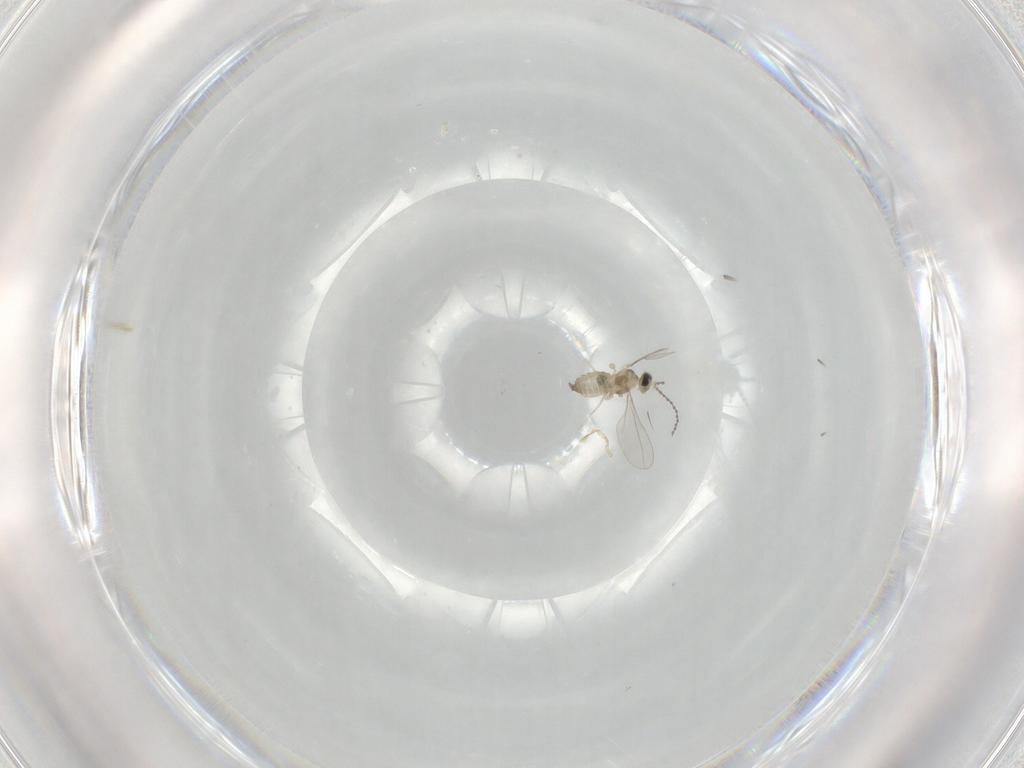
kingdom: Animalia
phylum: Arthropoda
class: Insecta
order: Diptera
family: Cecidomyiidae
